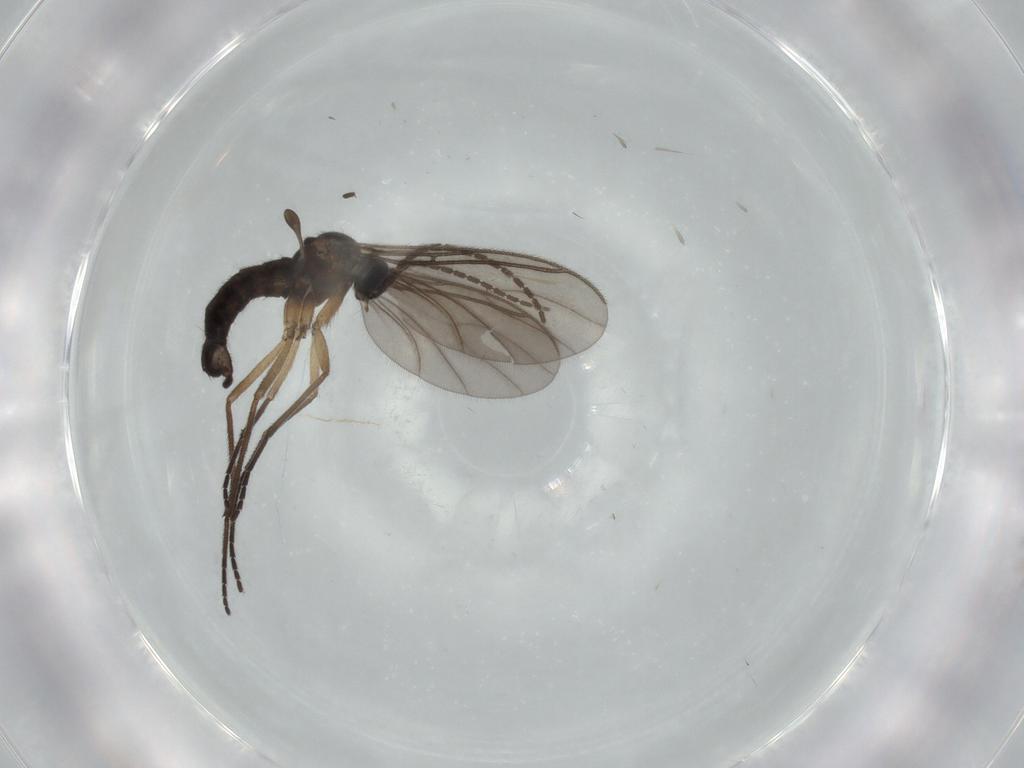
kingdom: Animalia
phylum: Arthropoda
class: Insecta
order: Diptera
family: Sciaridae
